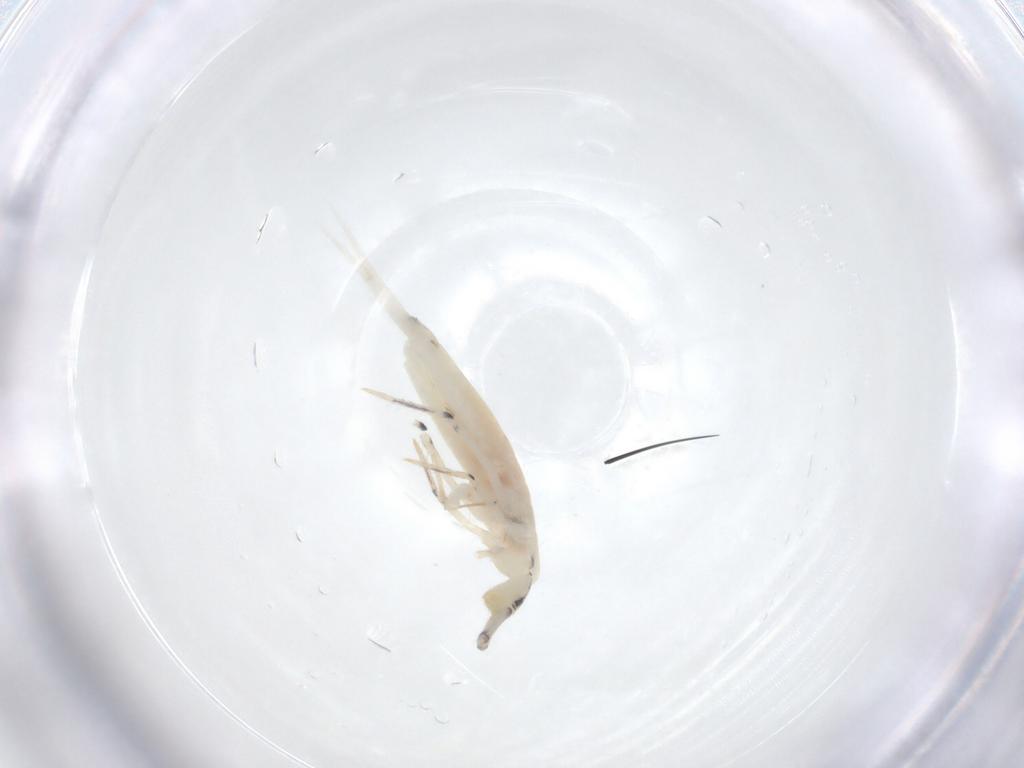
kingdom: Animalia
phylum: Arthropoda
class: Collembola
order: Entomobryomorpha
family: Entomobryidae
